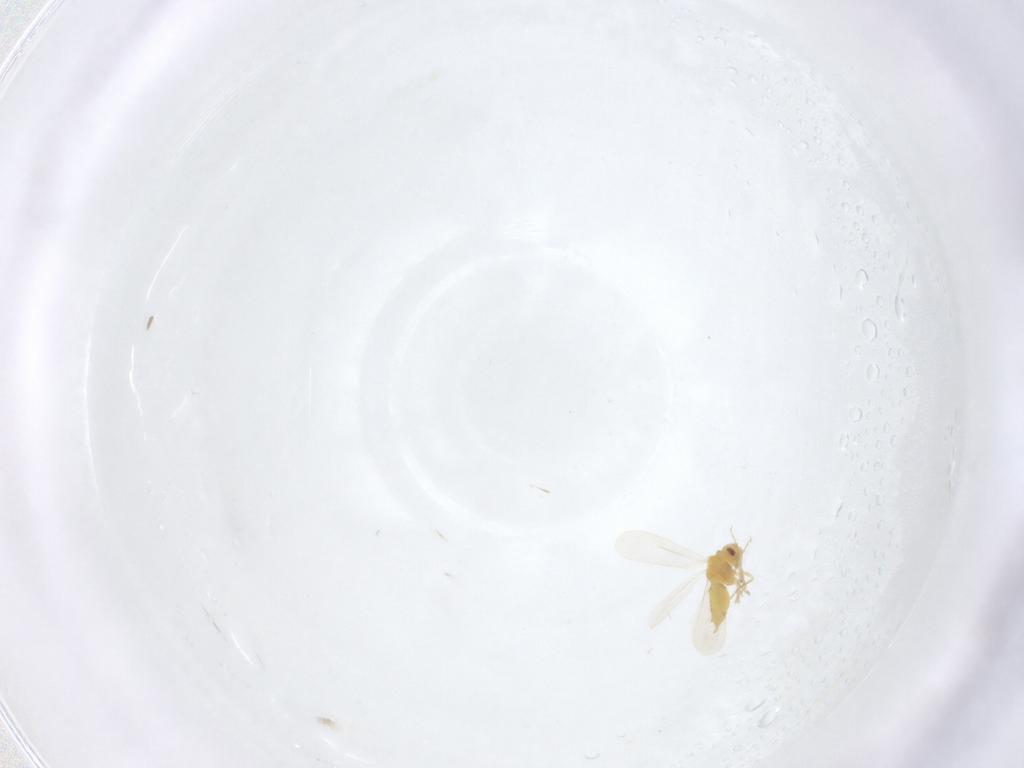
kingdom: Animalia
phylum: Arthropoda
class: Insecta
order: Hemiptera
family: Aleyrodidae
